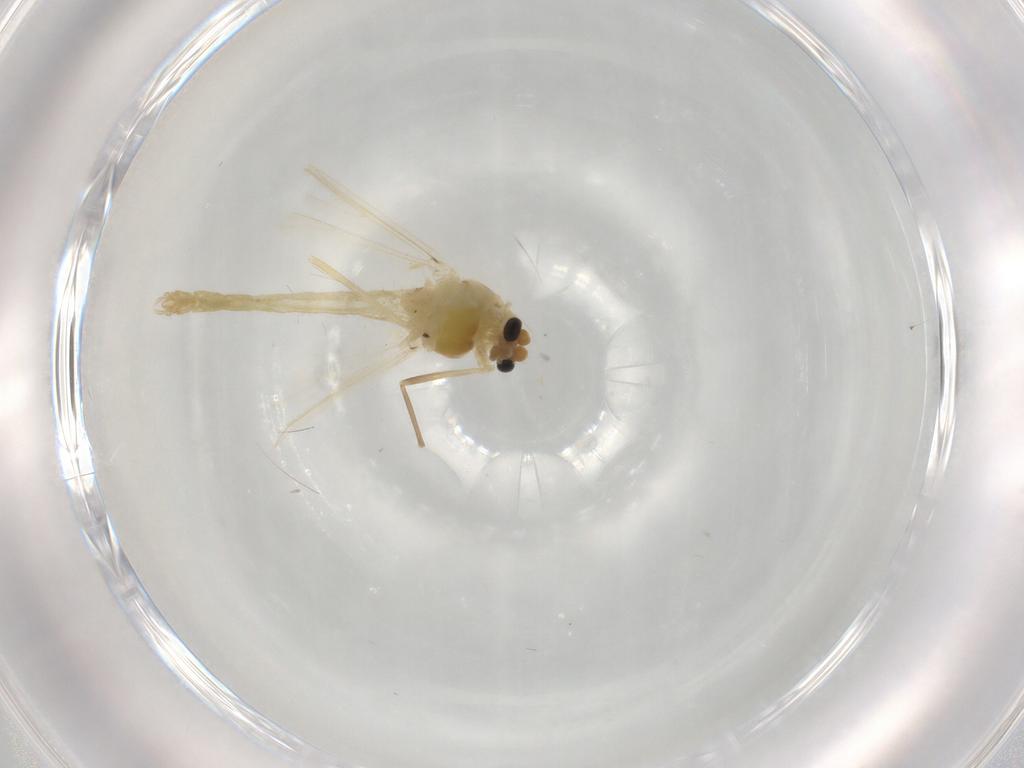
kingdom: Animalia
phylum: Arthropoda
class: Insecta
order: Diptera
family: Chironomidae
